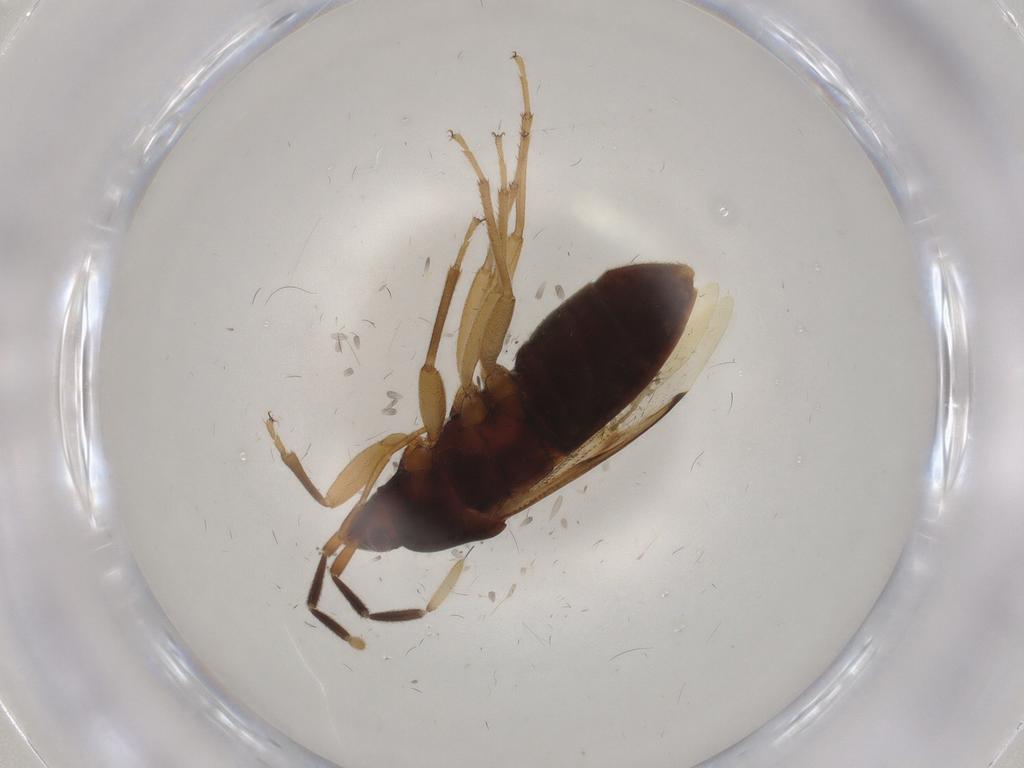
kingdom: Animalia
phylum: Arthropoda
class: Insecta
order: Hemiptera
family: Rhyparochromidae
